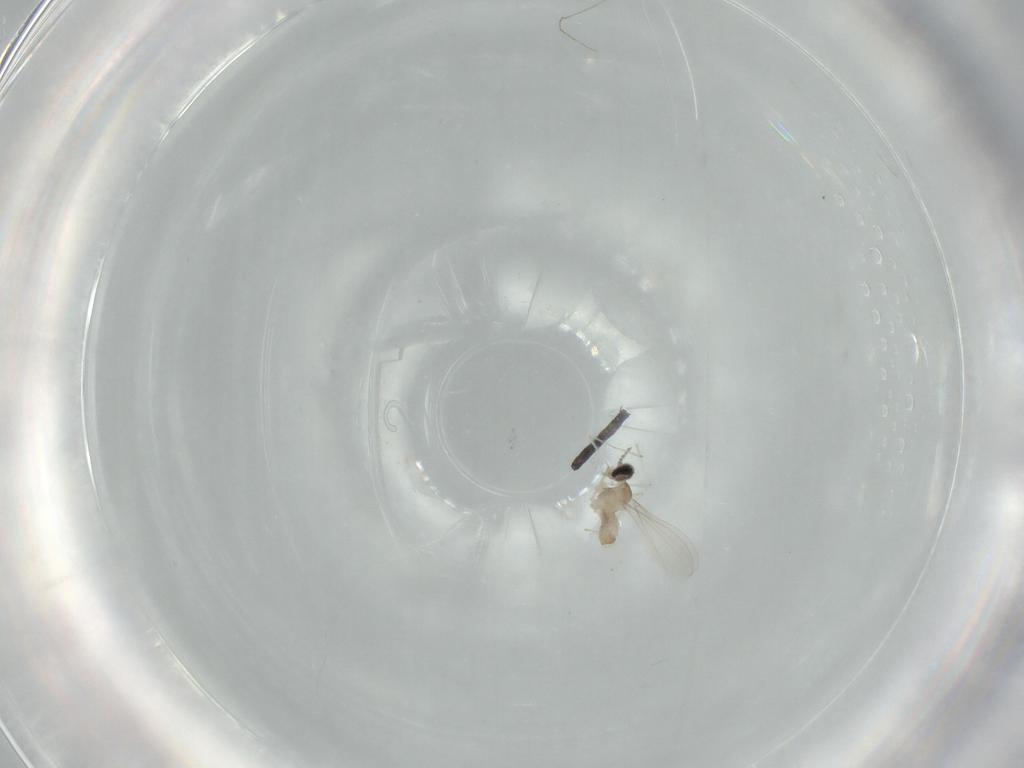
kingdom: Animalia
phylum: Arthropoda
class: Insecta
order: Diptera
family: Cecidomyiidae
